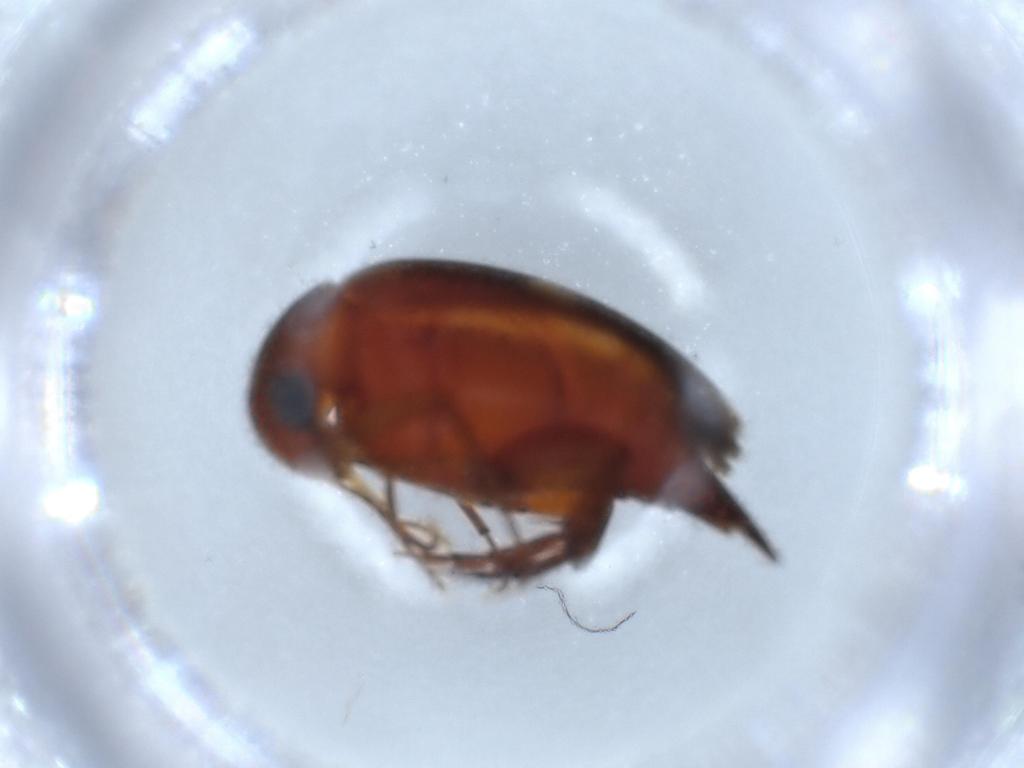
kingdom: Animalia
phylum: Arthropoda
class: Insecta
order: Coleoptera
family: Mordellidae
